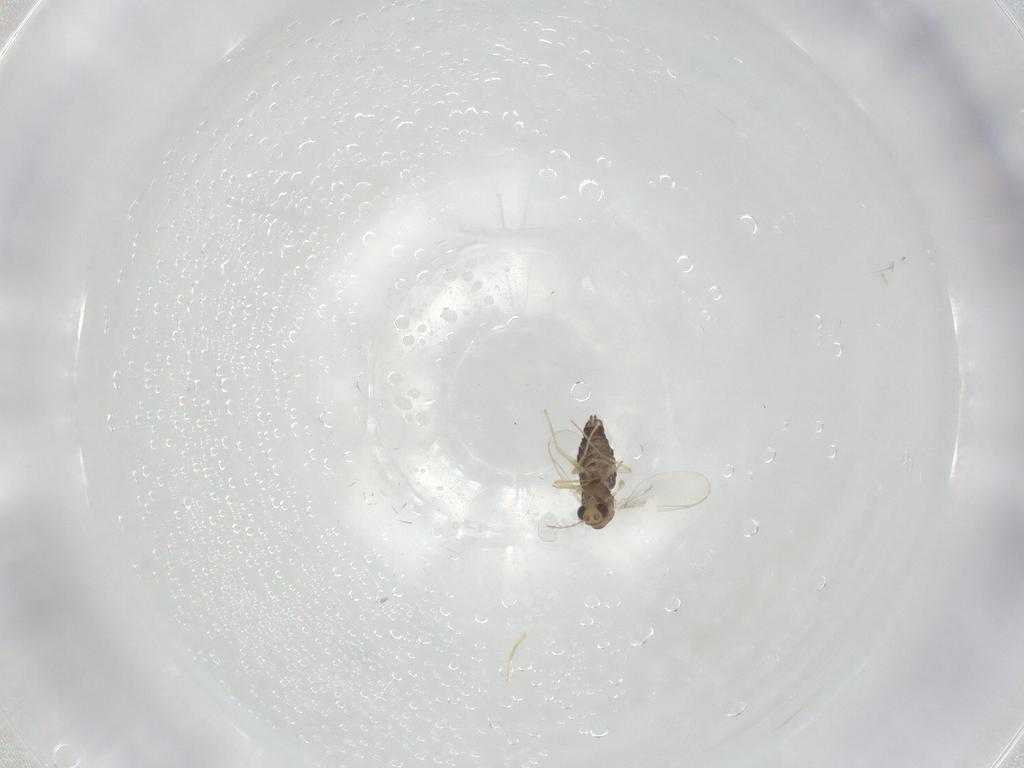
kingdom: Animalia
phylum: Arthropoda
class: Insecta
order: Diptera
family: Chironomidae
